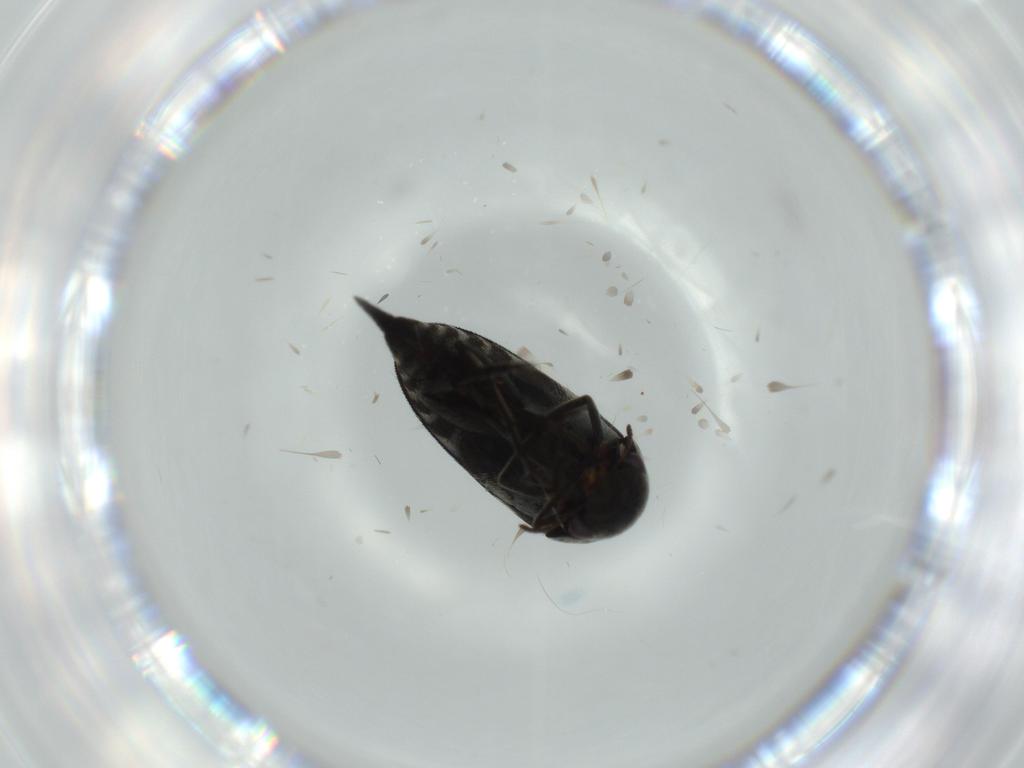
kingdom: Animalia
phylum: Arthropoda
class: Insecta
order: Coleoptera
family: Mordellidae
